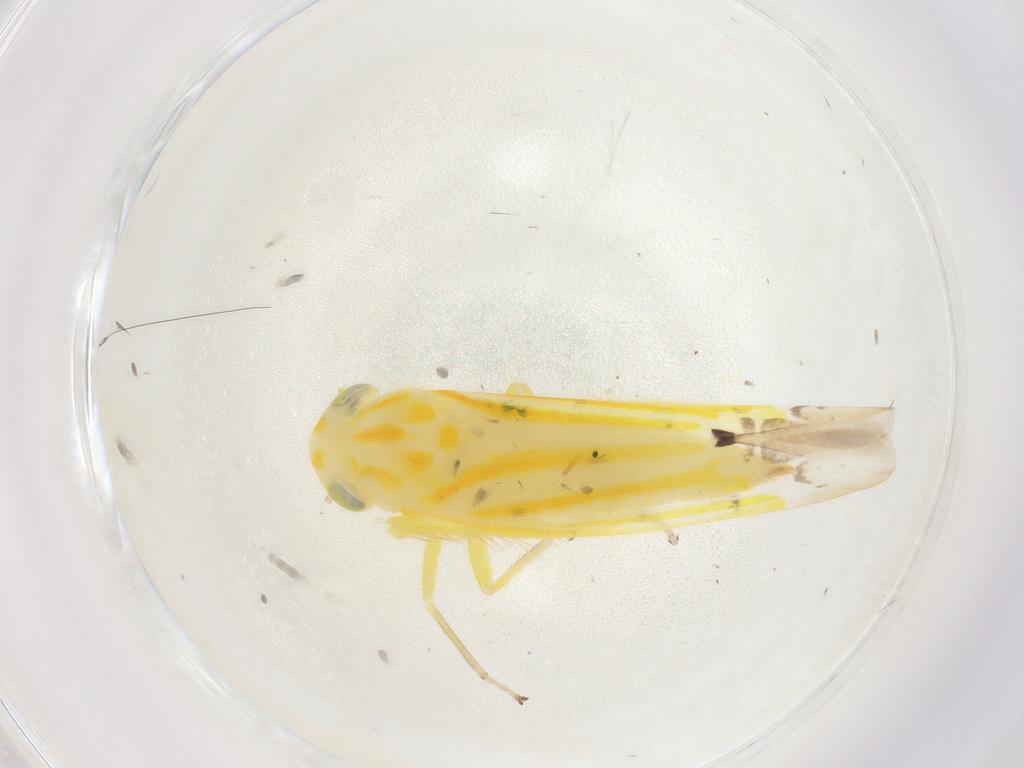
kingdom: Animalia
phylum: Arthropoda
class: Insecta
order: Hemiptera
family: Cicadellidae
